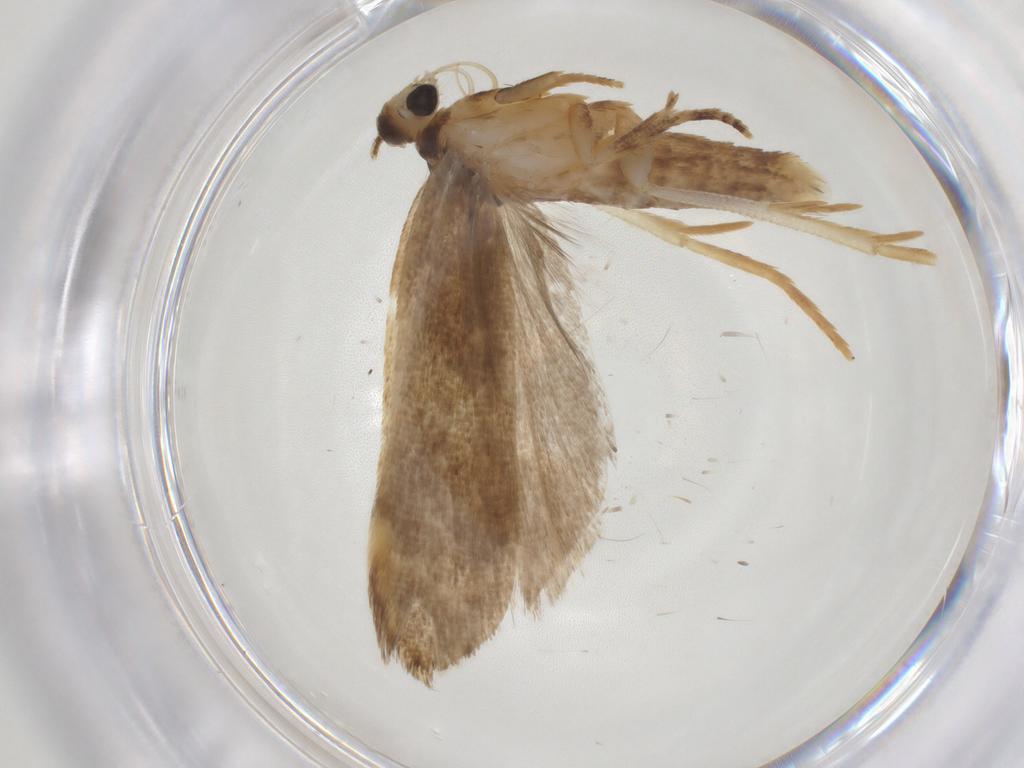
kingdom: Animalia
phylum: Arthropoda
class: Insecta
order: Lepidoptera
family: Gelechiidae
